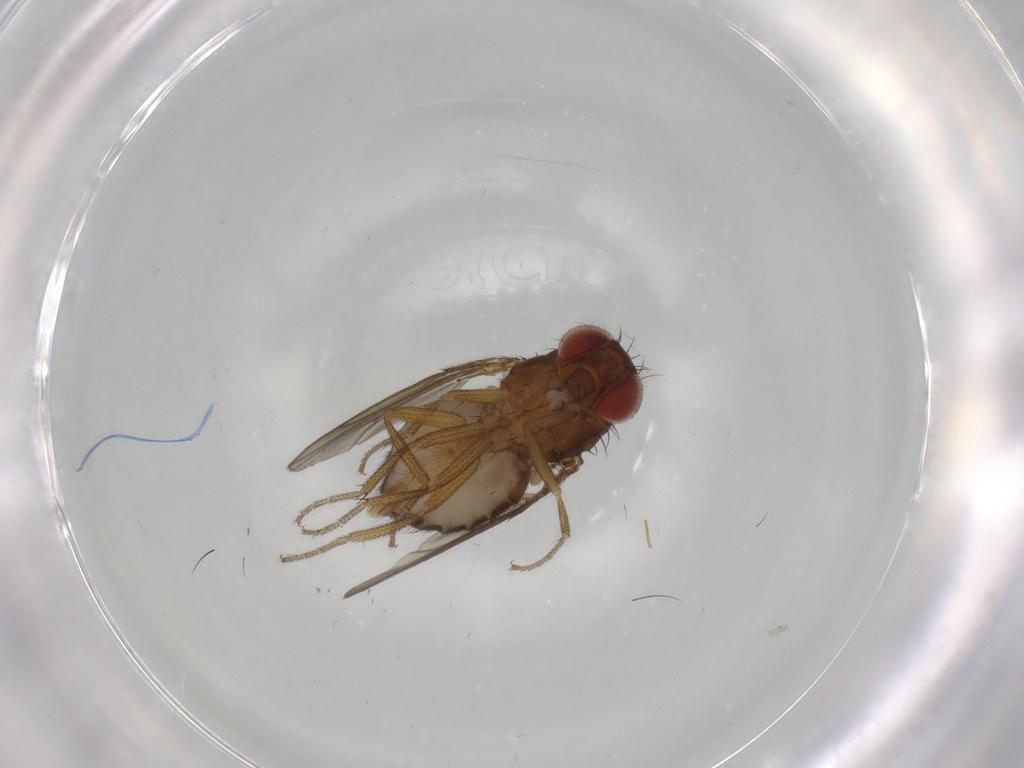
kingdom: Animalia
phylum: Arthropoda
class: Insecta
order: Diptera
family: Drosophilidae
